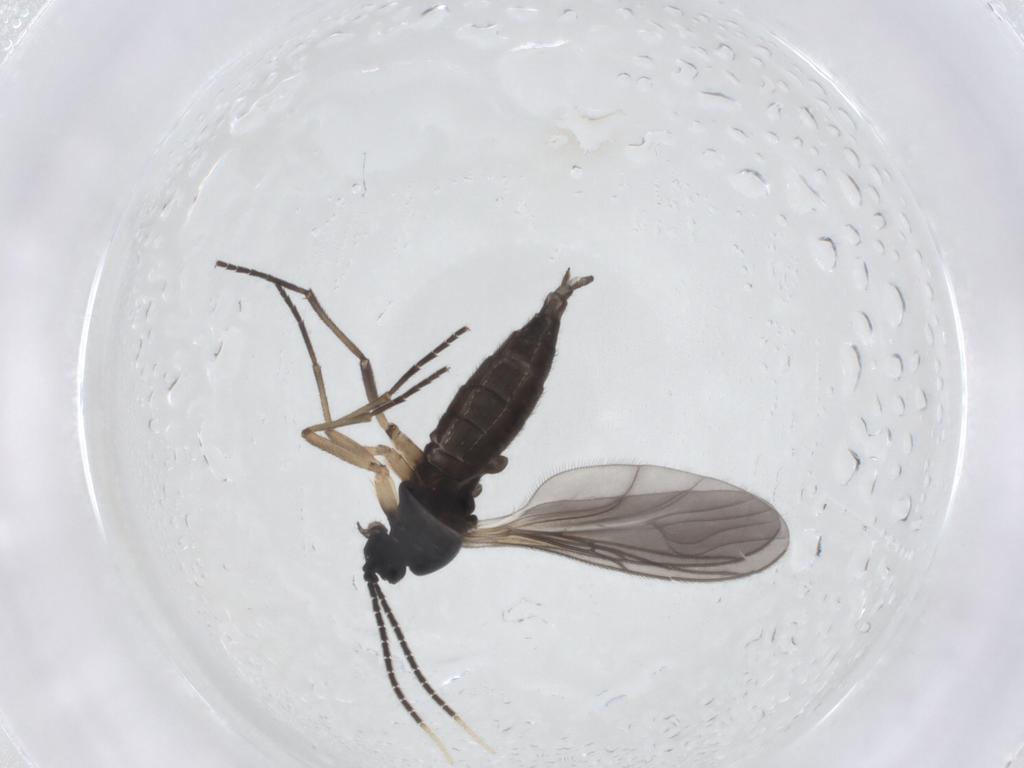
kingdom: Animalia
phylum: Arthropoda
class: Insecta
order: Diptera
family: Sciaridae
